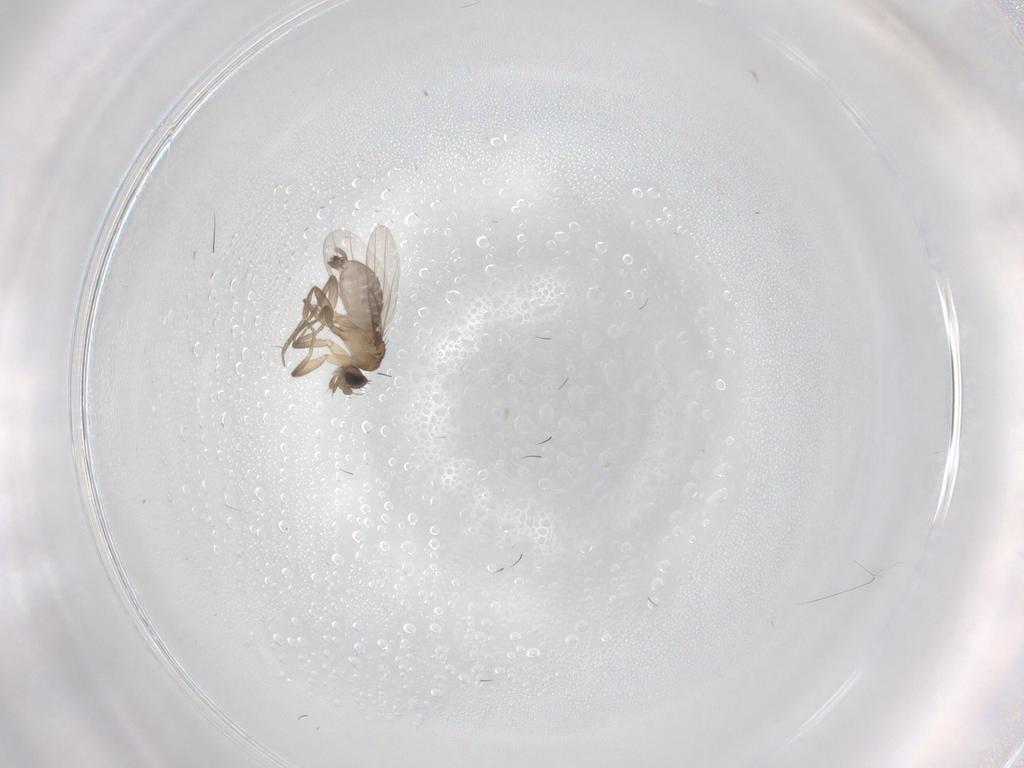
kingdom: Animalia
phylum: Arthropoda
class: Insecta
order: Diptera
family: Phoridae
